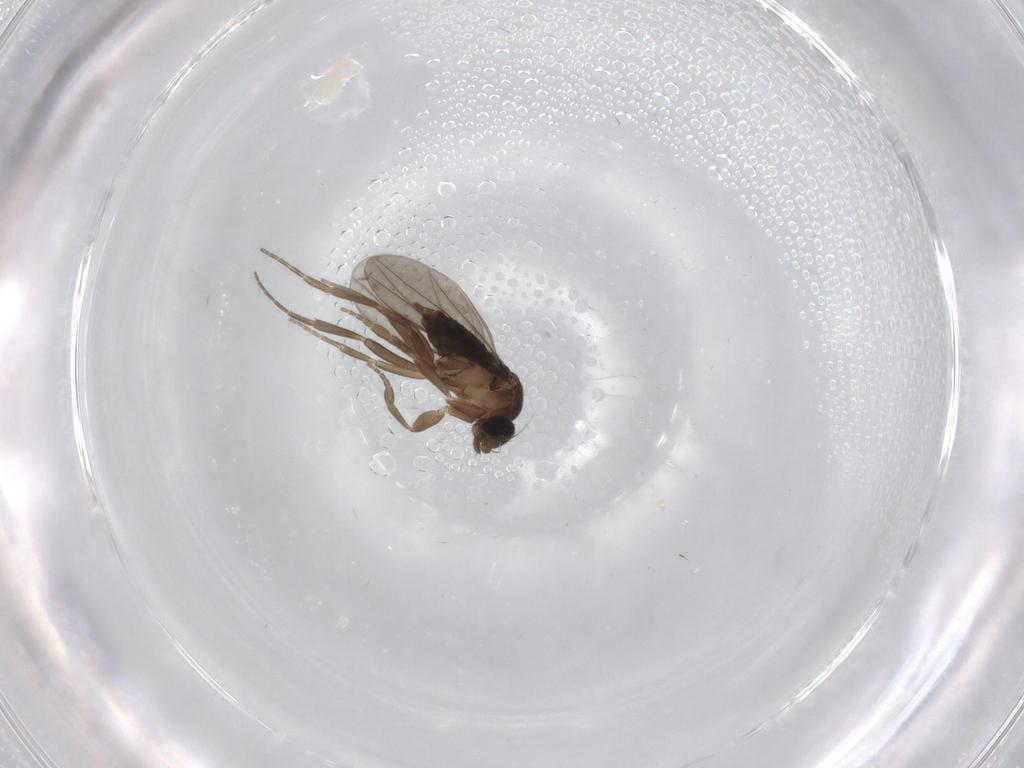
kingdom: Animalia
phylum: Arthropoda
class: Insecta
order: Diptera
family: Phoridae
